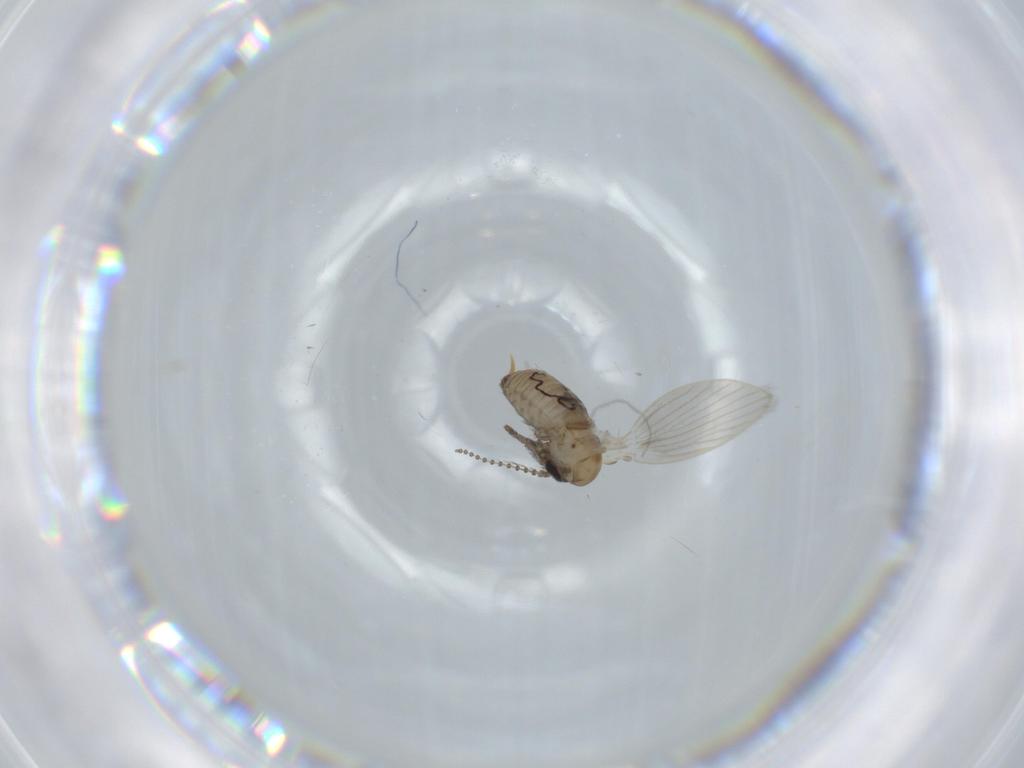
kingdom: Animalia
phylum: Arthropoda
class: Insecta
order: Diptera
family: Psychodidae
